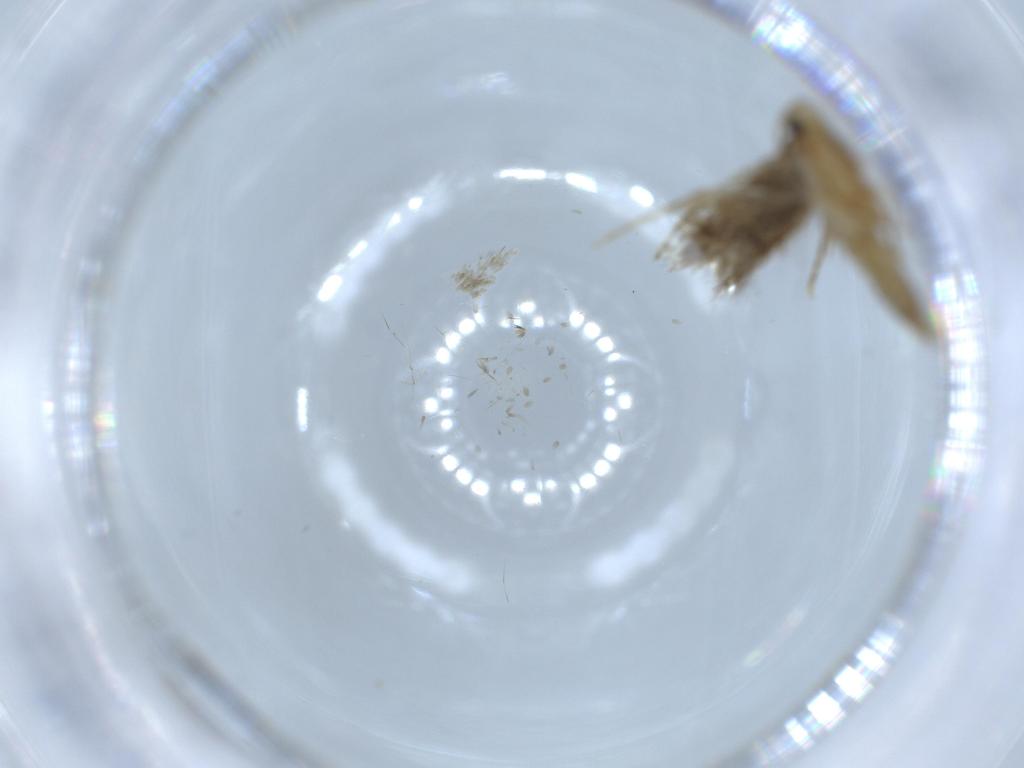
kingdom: Animalia
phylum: Arthropoda
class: Insecta
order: Lepidoptera
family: Tineidae
